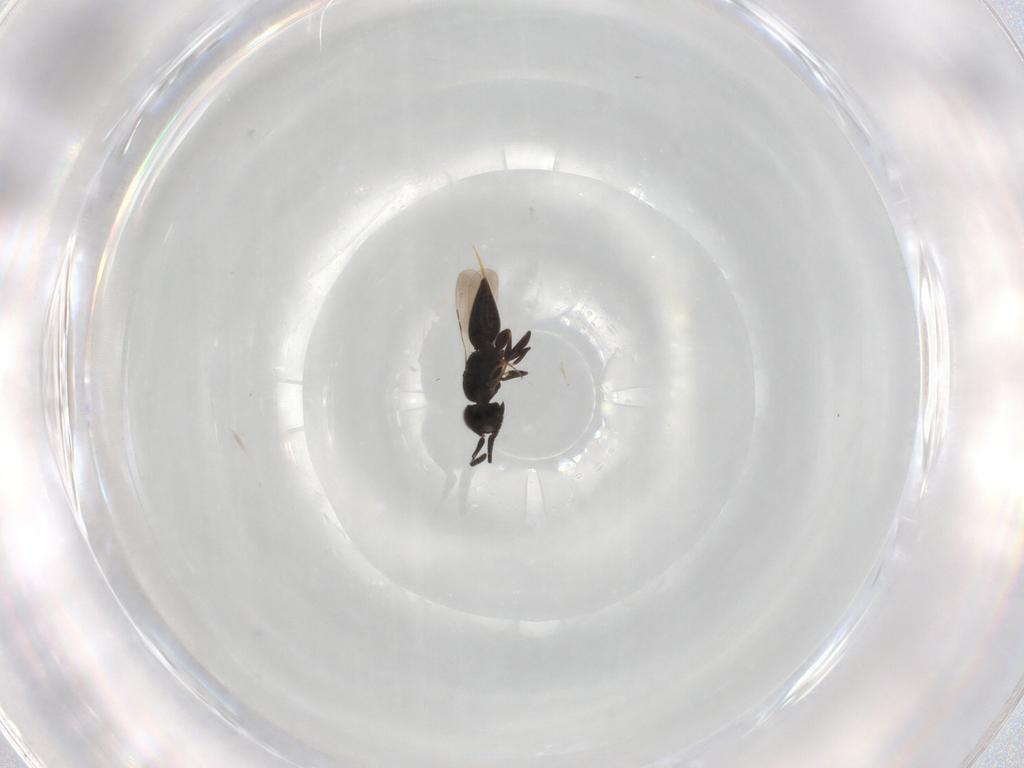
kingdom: Animalia
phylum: Arthropoda
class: Insecta
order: Hymenoptera
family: Vespidae
